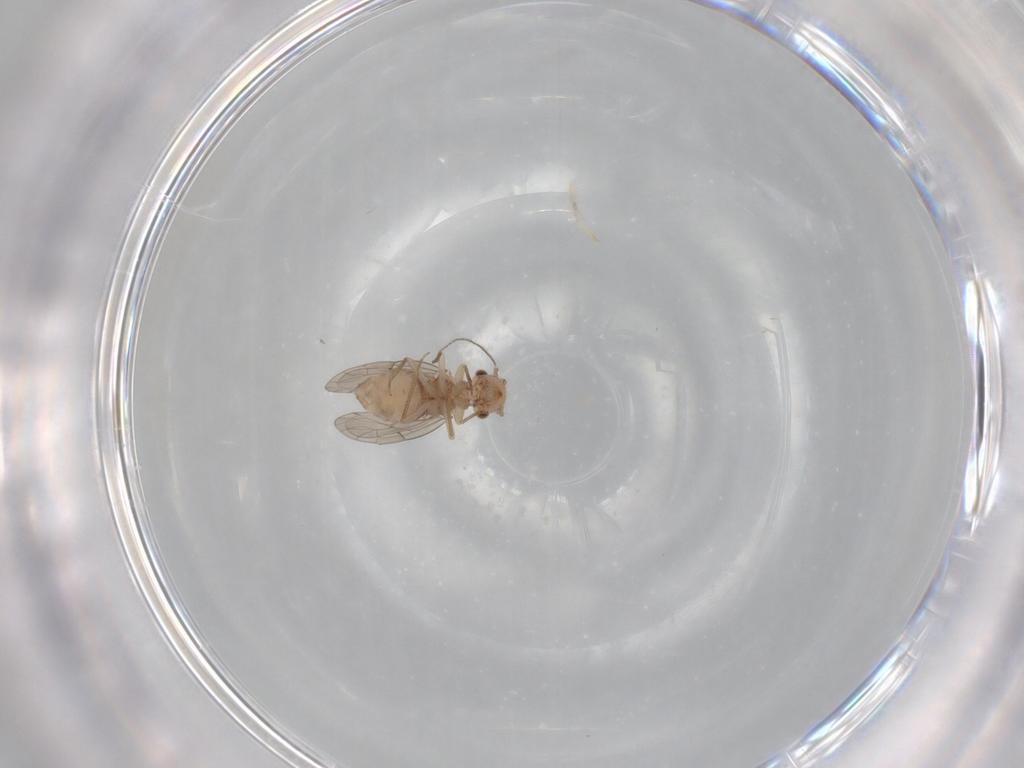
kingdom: Animalia
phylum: Arthropoda
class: Insecta
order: Psocodea
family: Ectopsocidae
